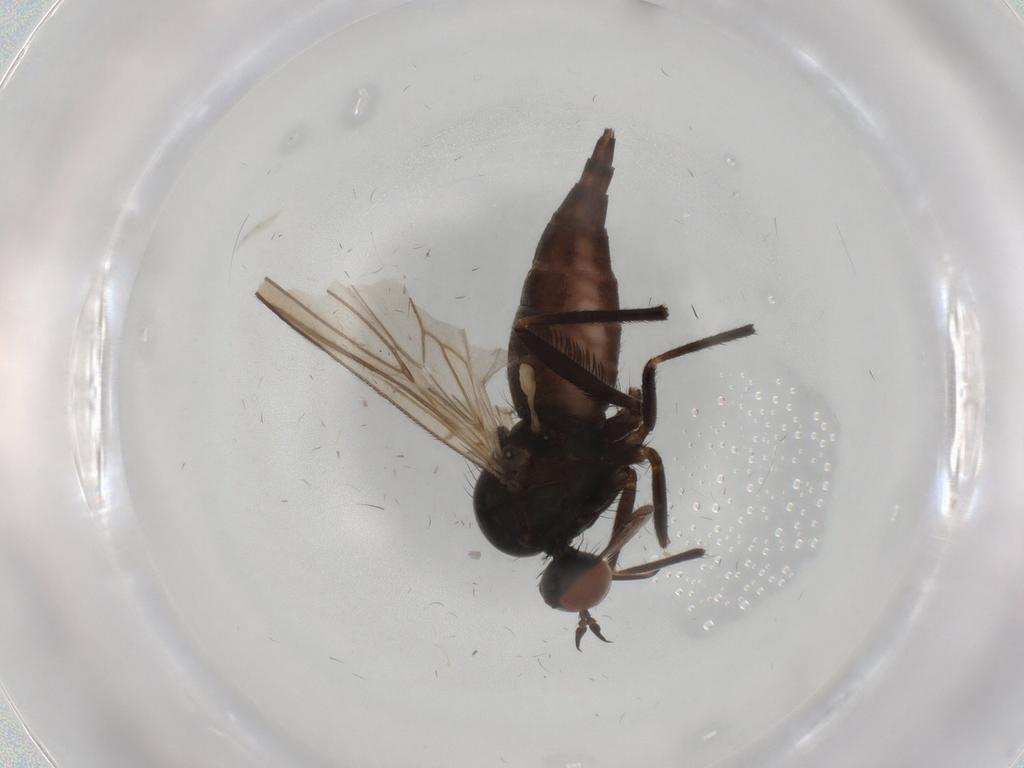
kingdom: Animalia
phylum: Arthropoda
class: Insecta
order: Diptera
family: Empididae
